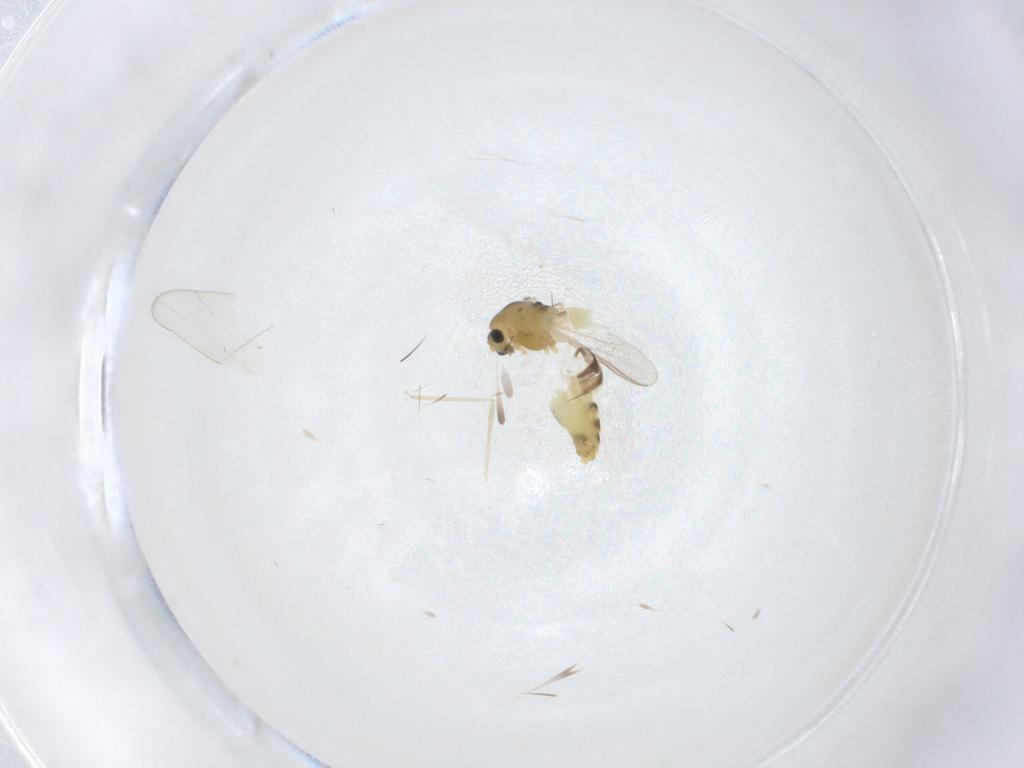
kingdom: Animalia
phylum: Arthropoda
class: Insecta
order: Diptera
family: Chironomidae
